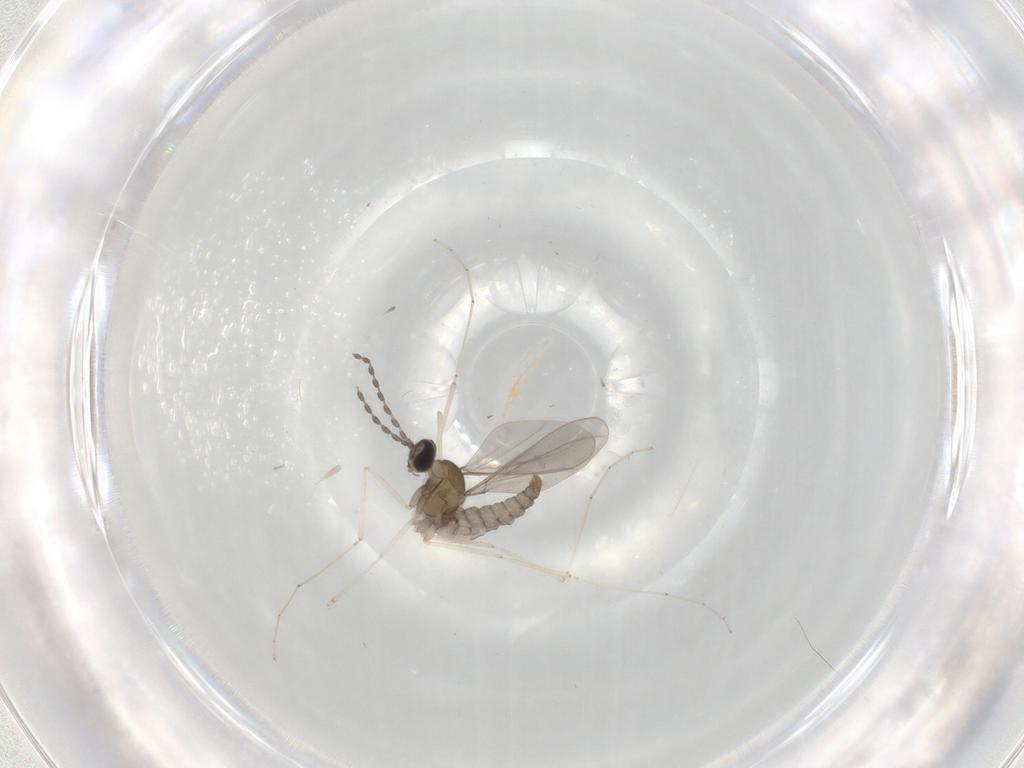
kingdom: Animalia
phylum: Arthropoda
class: Insecta
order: Diptera
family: Cecidomyiidae
